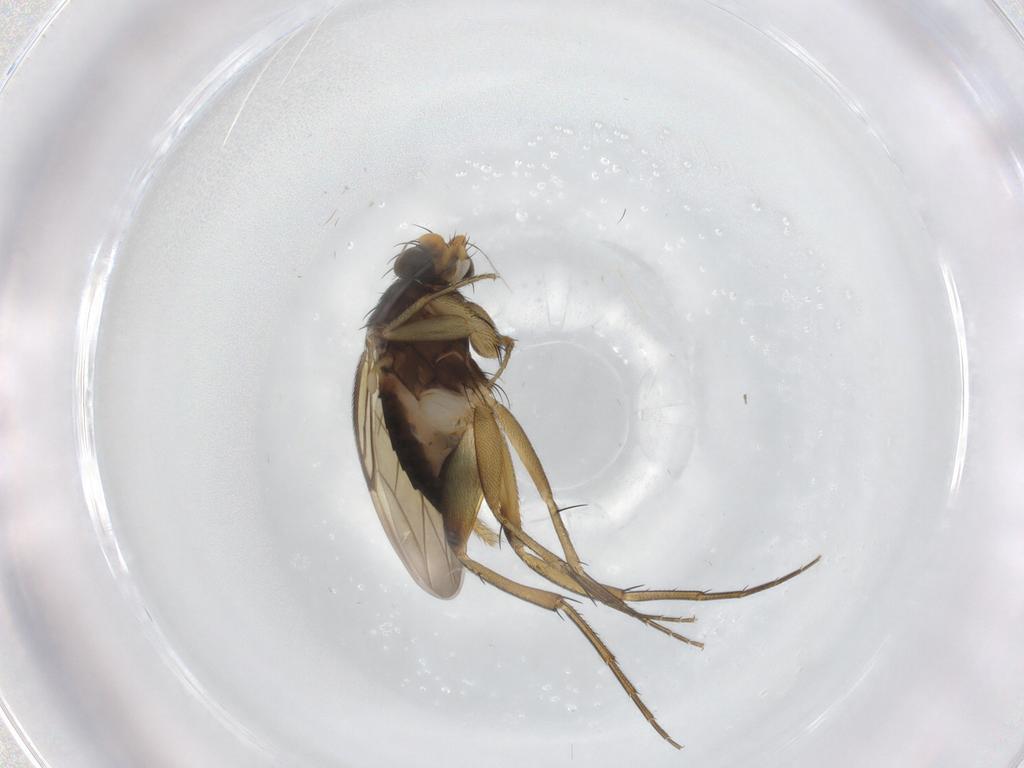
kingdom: Animalia
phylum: Arthropoda
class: Insecta
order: Diptera
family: Phoridae
